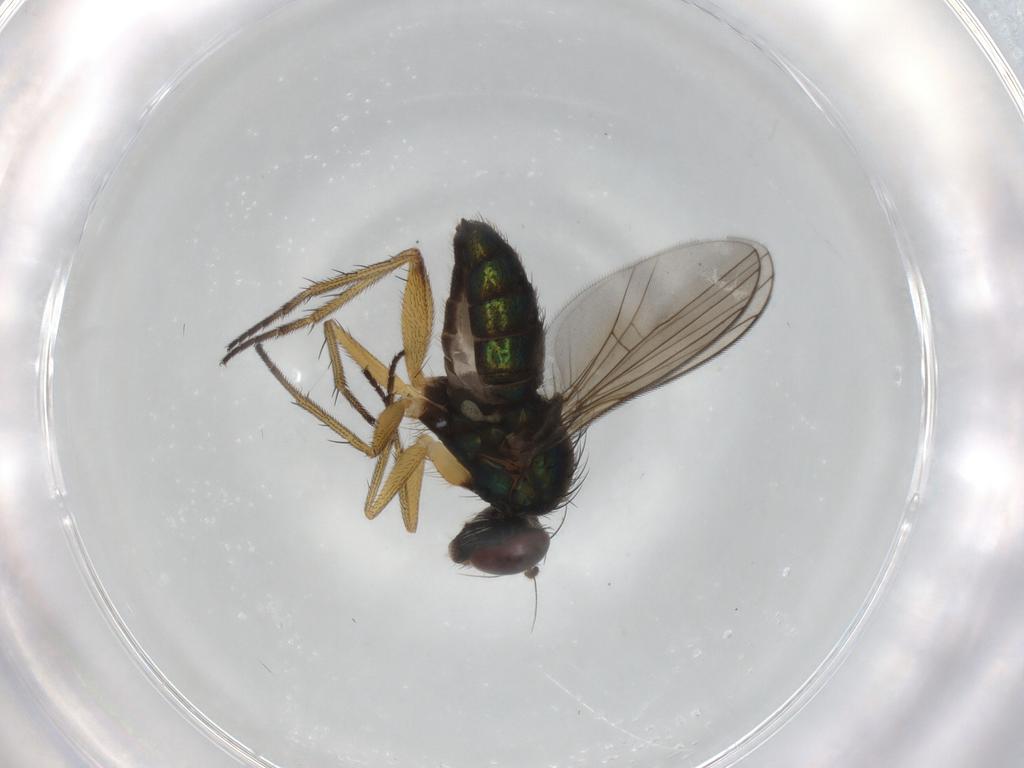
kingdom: Animalia
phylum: Arthropoda
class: Insecta
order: Diptera
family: Dolichopodidae
